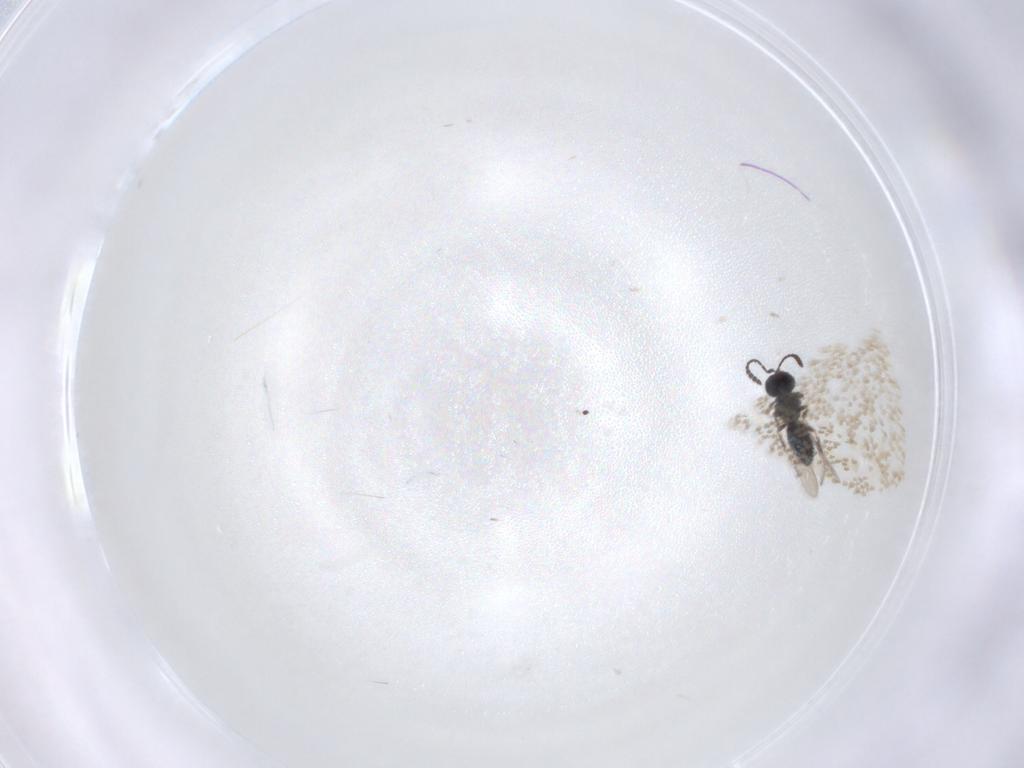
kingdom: Animalia
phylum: Arthropoda
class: Insecta
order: Hymenoptera
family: Scelionidae
